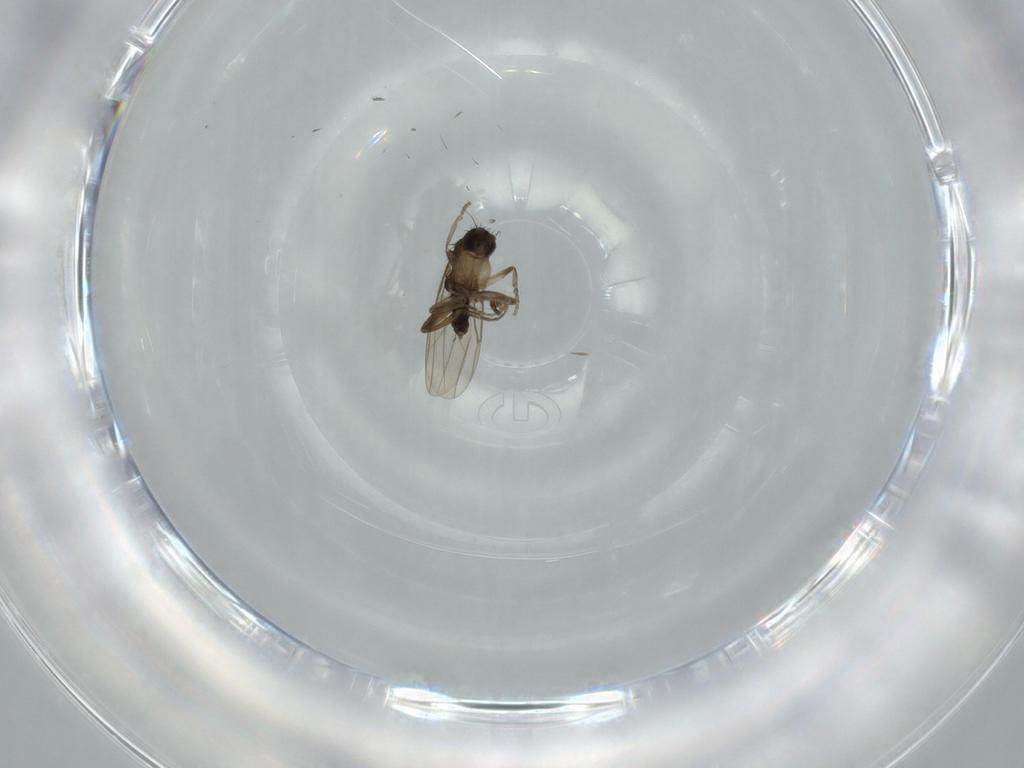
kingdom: Animalia
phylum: Arthropoda
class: Insecta
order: Diptera
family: Phoridae
